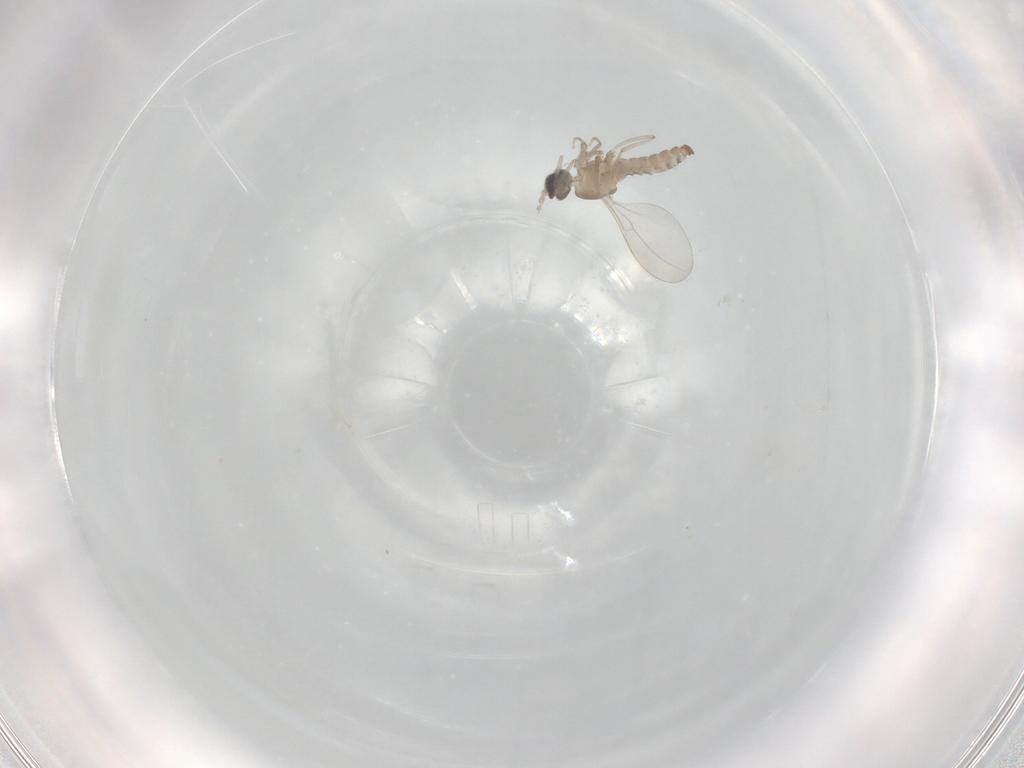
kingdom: Animalia
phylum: Arthropoda
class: Insecta
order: Diptera
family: Cecidomyiidae
